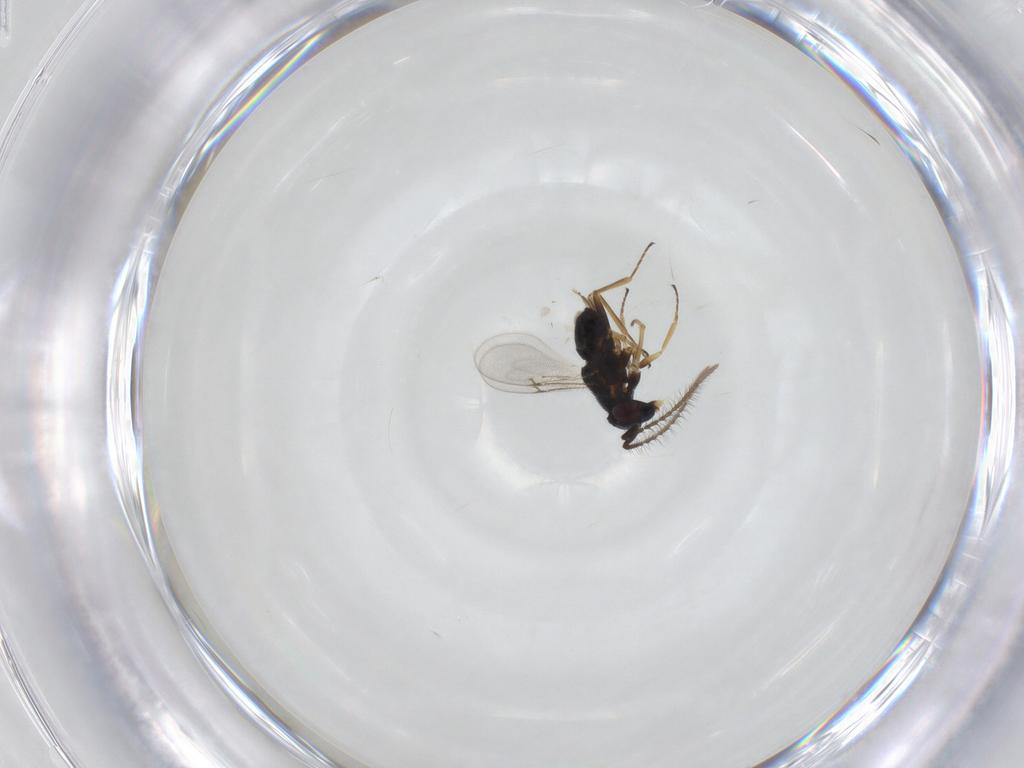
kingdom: Animalia
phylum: Arthropoda
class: Insecta
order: Hymenoptera
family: Encyrtidae
